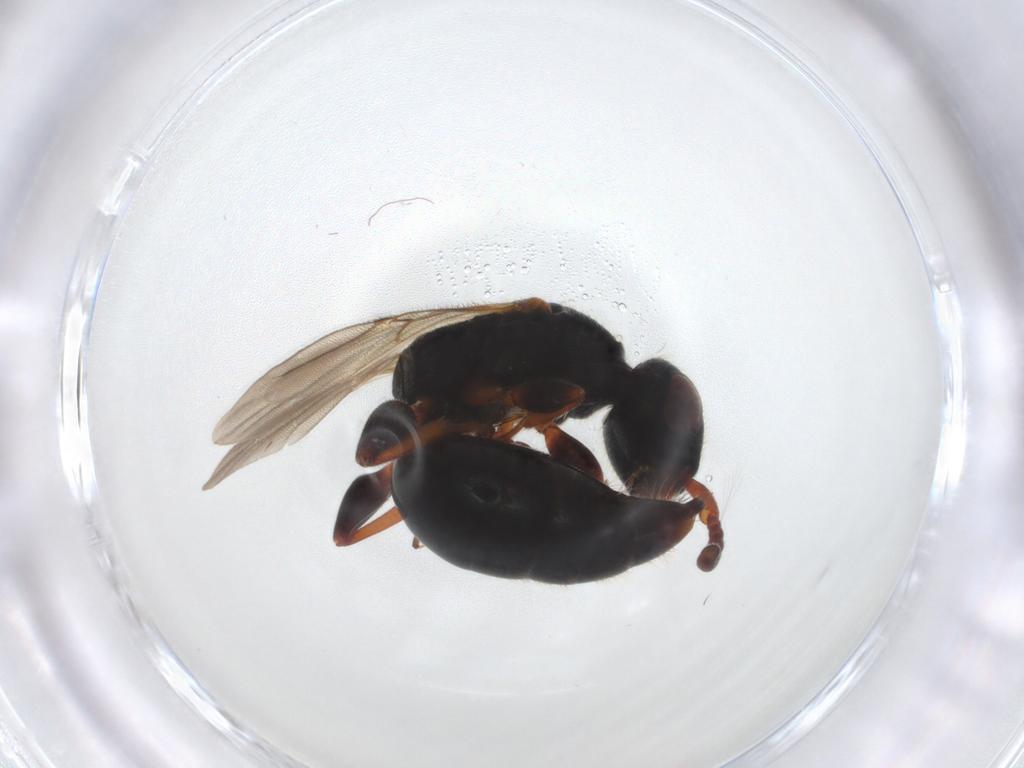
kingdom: Animalia
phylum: Arthropoda
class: Insecta
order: Hymenoptera
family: Bethylidae
